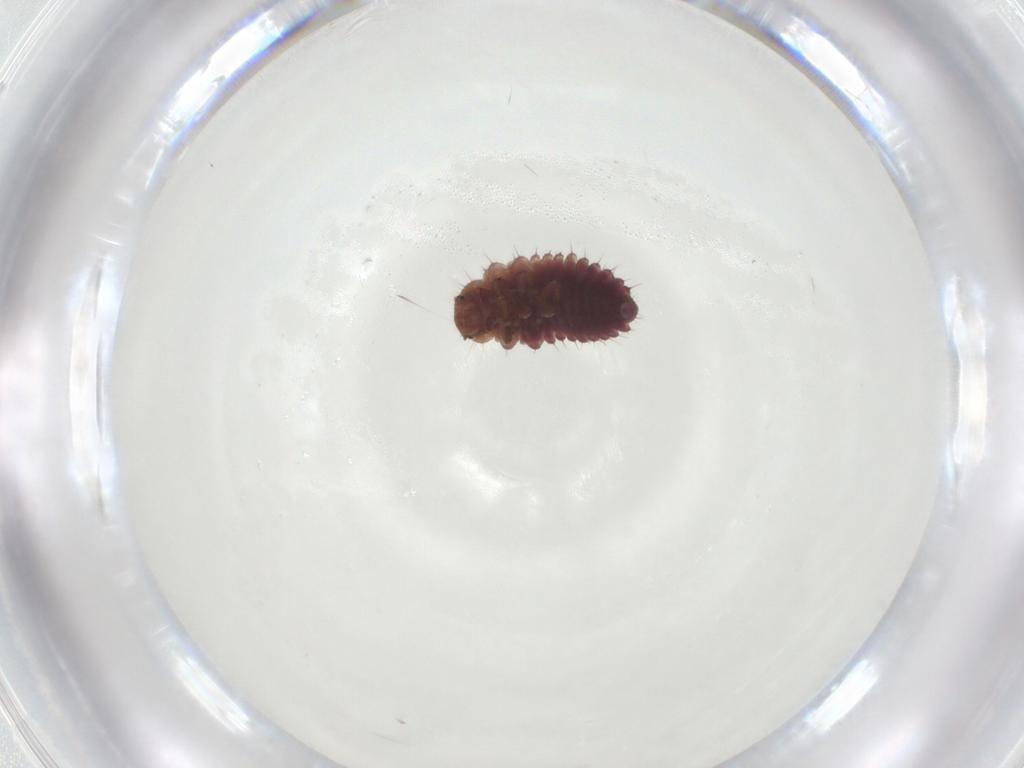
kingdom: Animalia
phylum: Arthropoda
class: Insecta
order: Coleoptera
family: Coccinellidae
